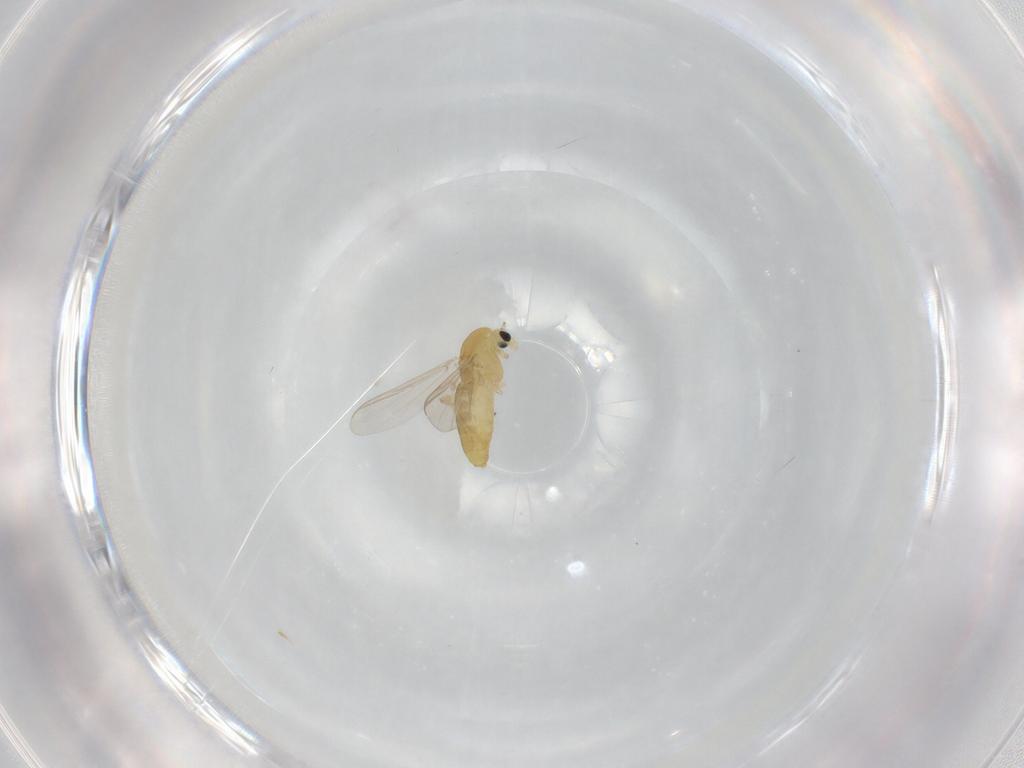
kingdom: Animalia
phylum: Arthropoda
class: Insecta
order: Diptera
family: Chironomidae
